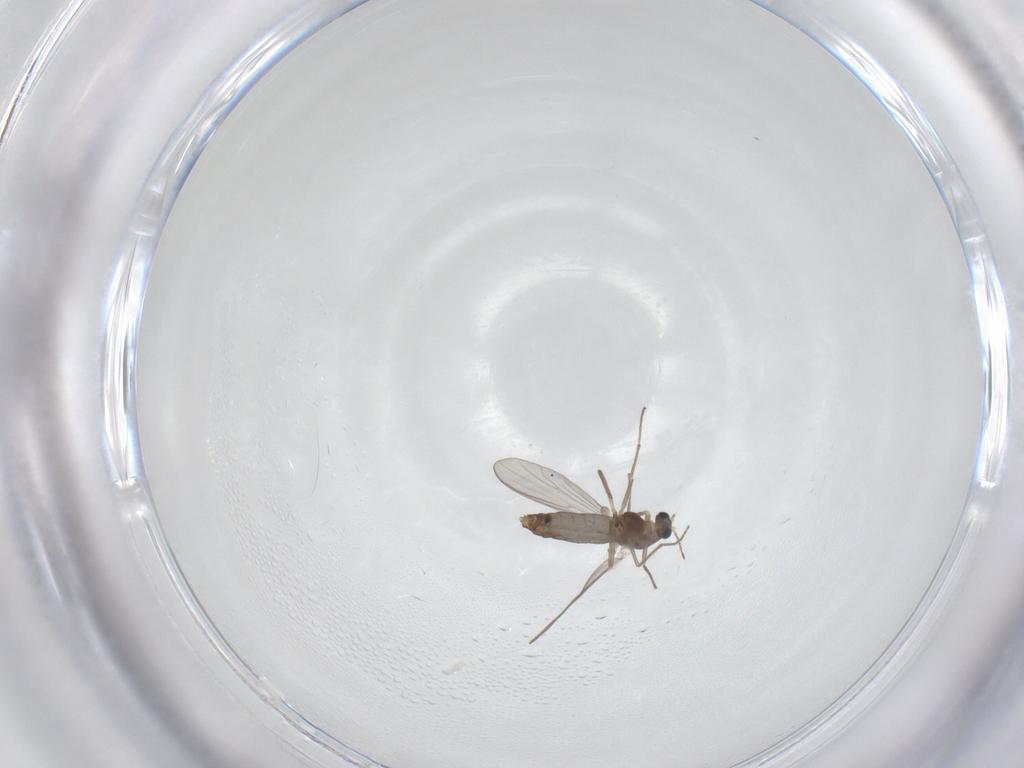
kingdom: Animalia
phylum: Arthropoda
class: Insecta
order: Diptera
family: Chironomidae
